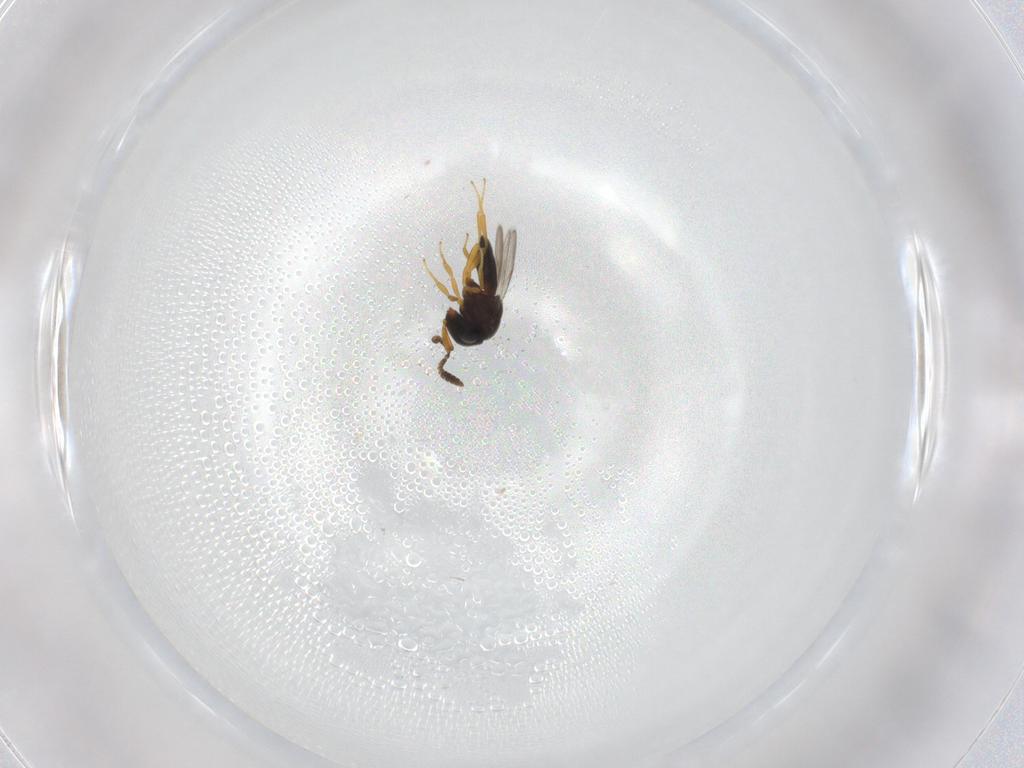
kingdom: Animalia
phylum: Arthropoda
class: Insecta
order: Hymenoptera
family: Scelionidae
